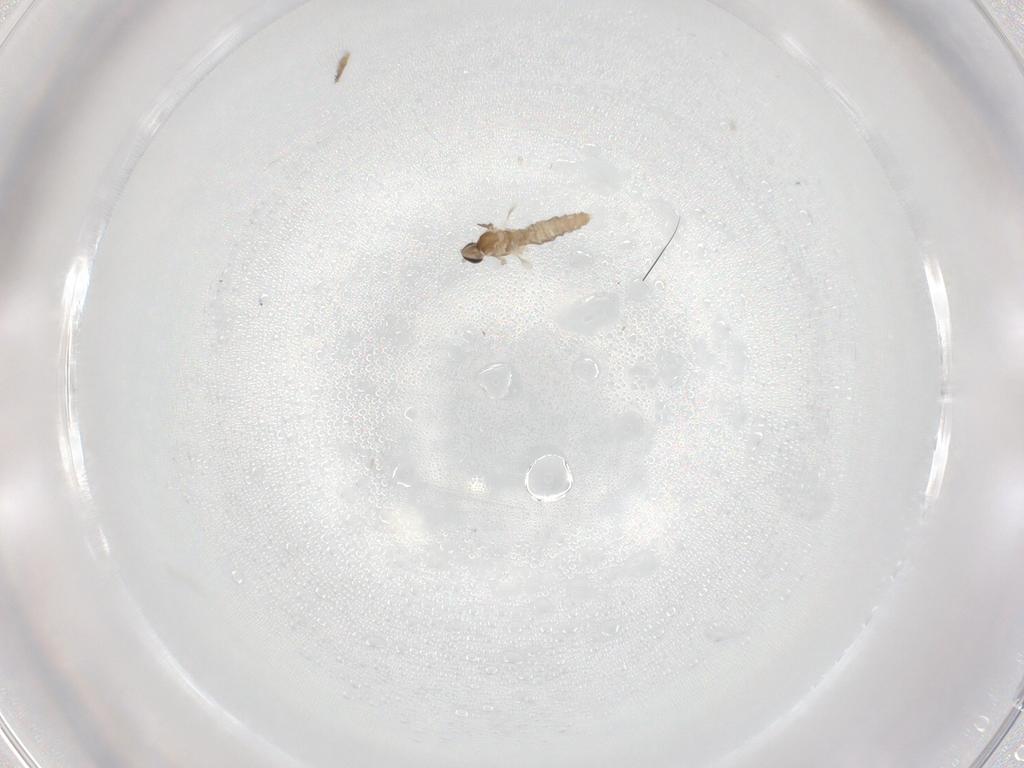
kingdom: Animalia
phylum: Arthropoda
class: Insecta
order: Diptera
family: Cecidomyiidae
